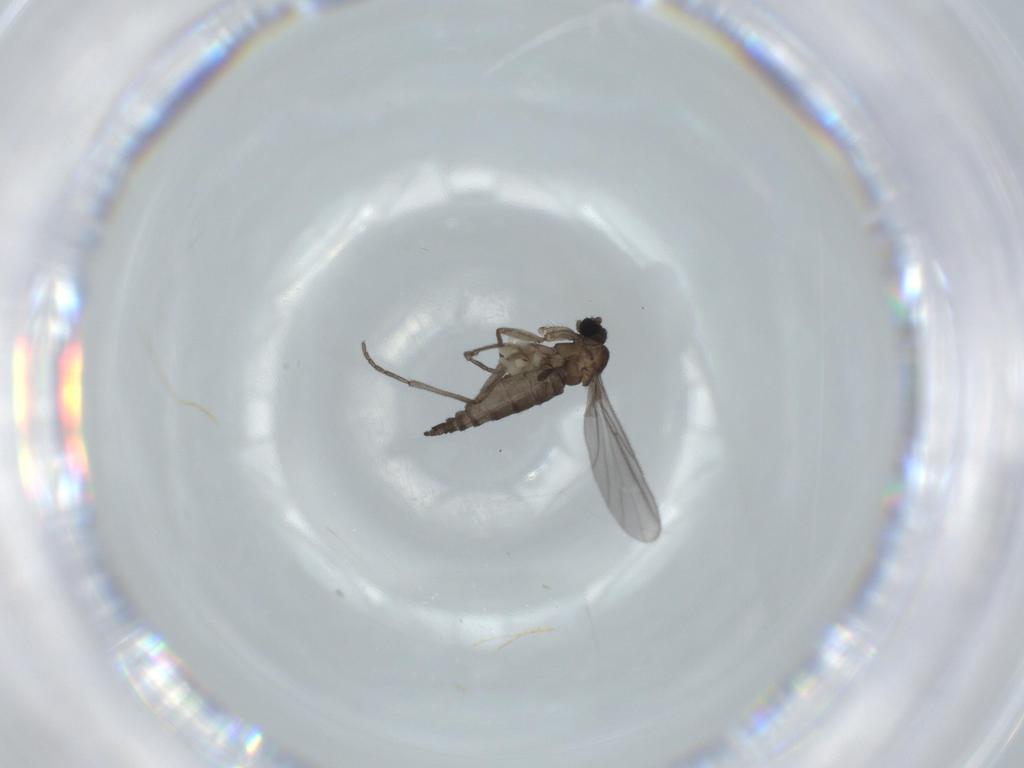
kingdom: Animalia
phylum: Arthropoda
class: Insecta
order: Diptera
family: Sciaridae
